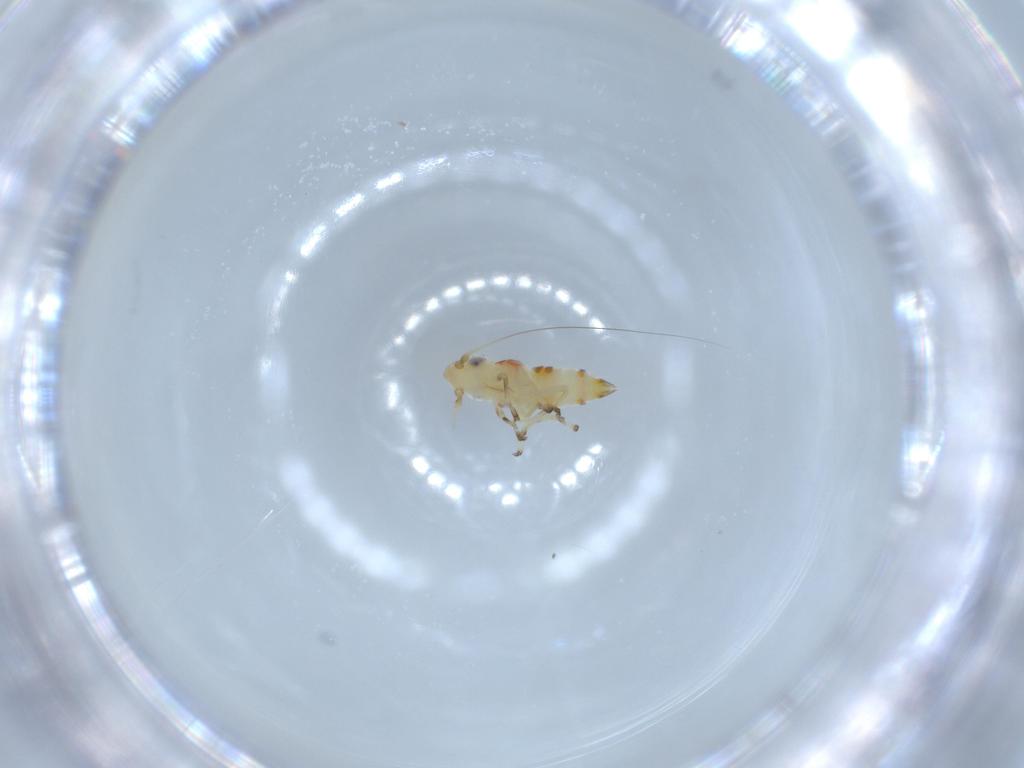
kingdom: Animalia
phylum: Arthropoda
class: Insecta
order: Hemiptera
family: Cicadellidae
